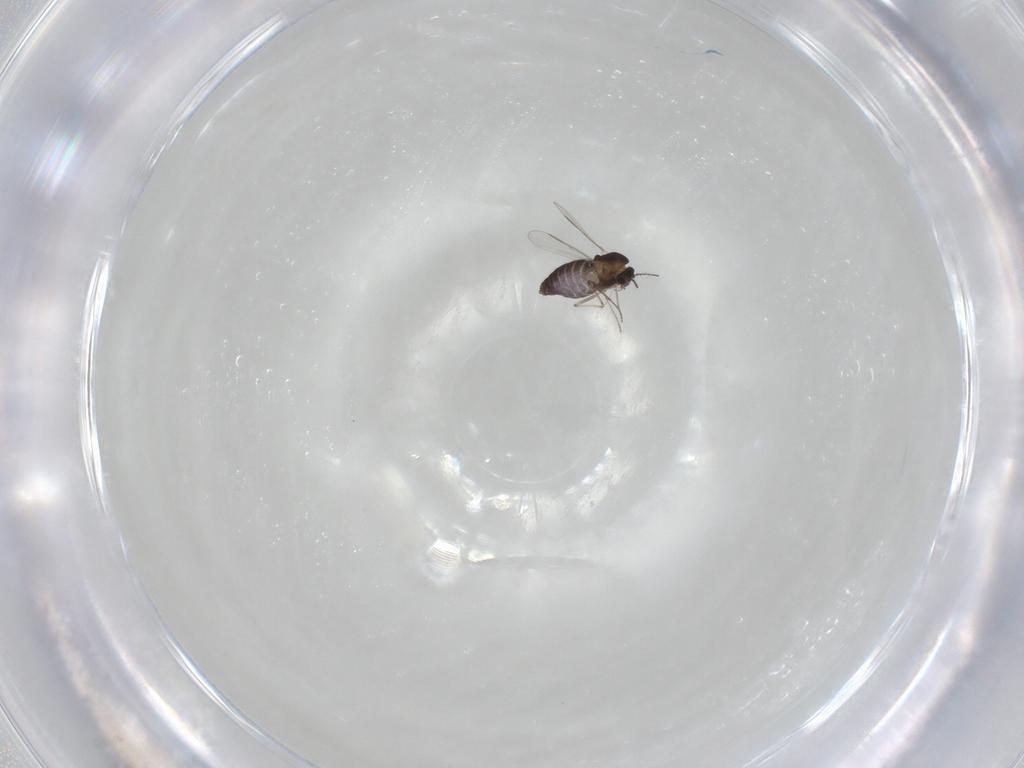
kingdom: Animalia
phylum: Arthropoda
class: Insecta
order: Diptera
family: Chironomidae
